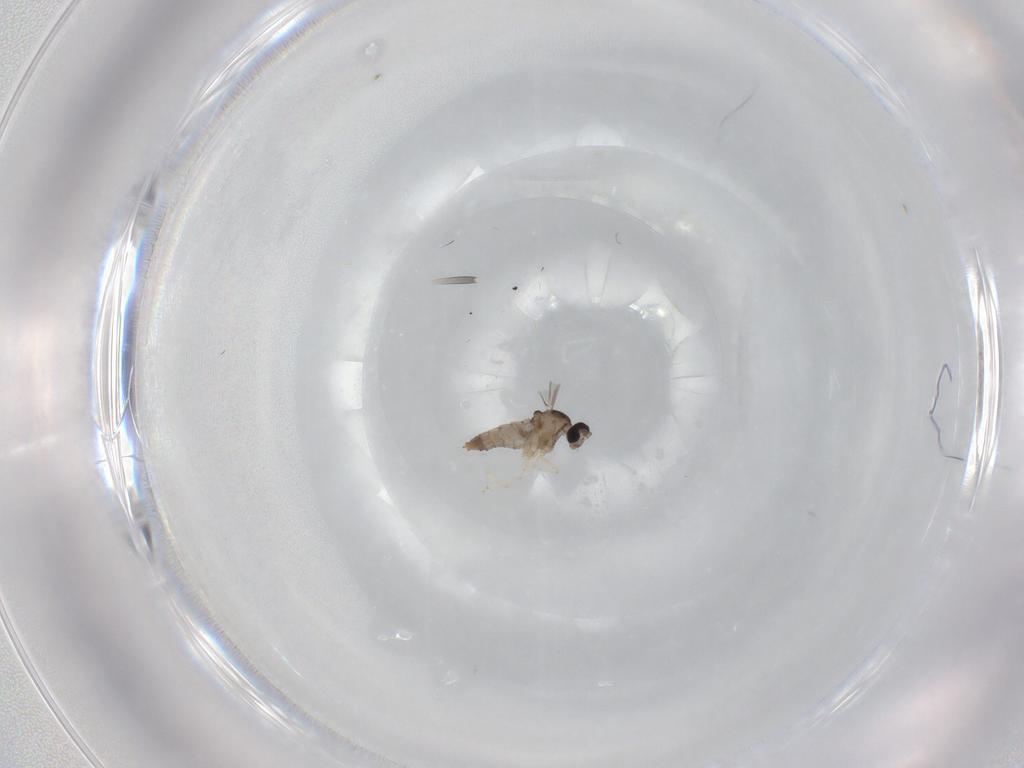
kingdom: Animalia
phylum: Arthropoda
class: Insecta
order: Diptera
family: Cecidomyiidae
